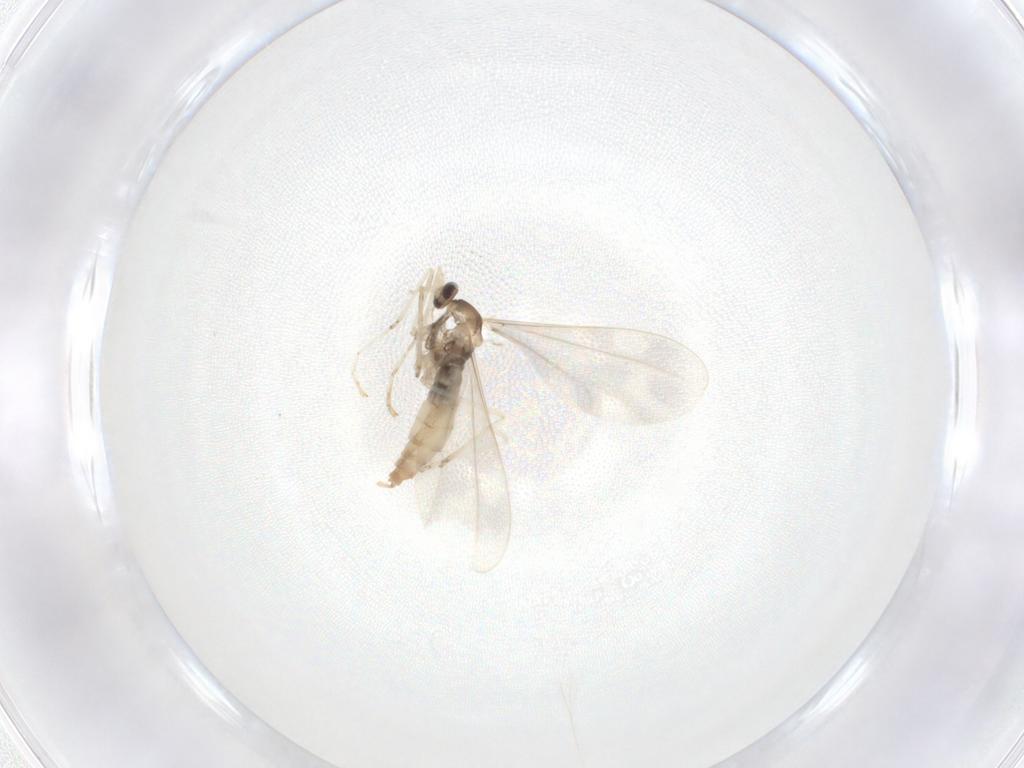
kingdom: Animalia
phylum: Arthropoda
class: Insecta
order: Diptera
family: Cecidomyiidae
